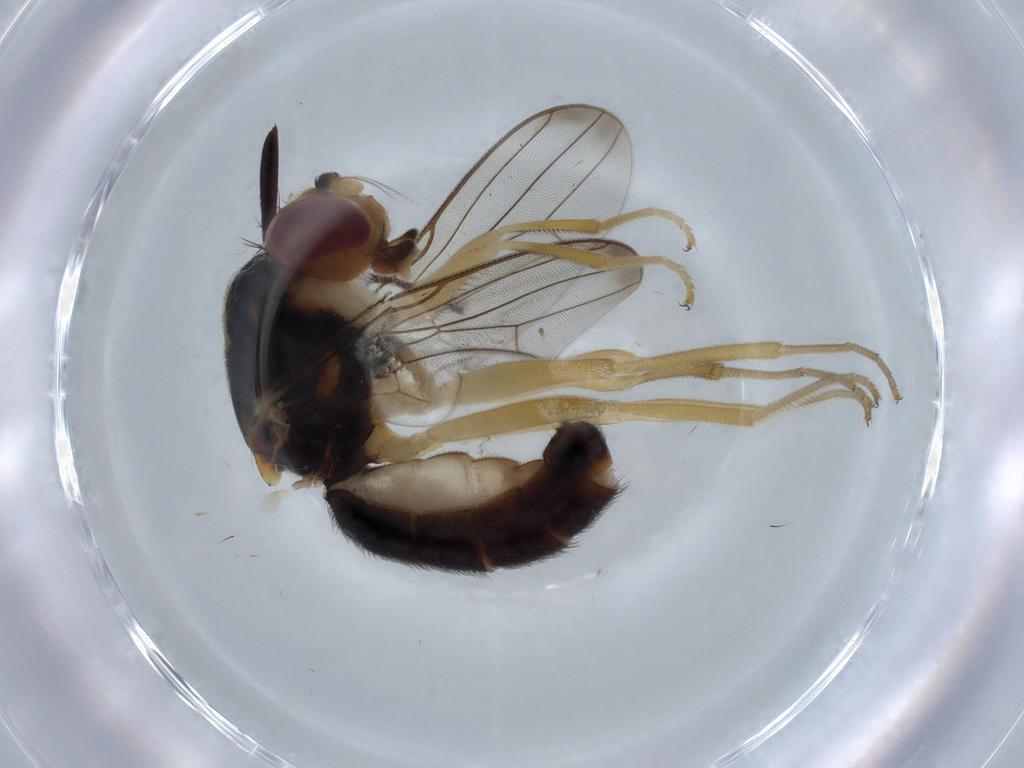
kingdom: Animalia
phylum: Arthropoda
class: Insecta
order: Diptera
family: Psilidae
